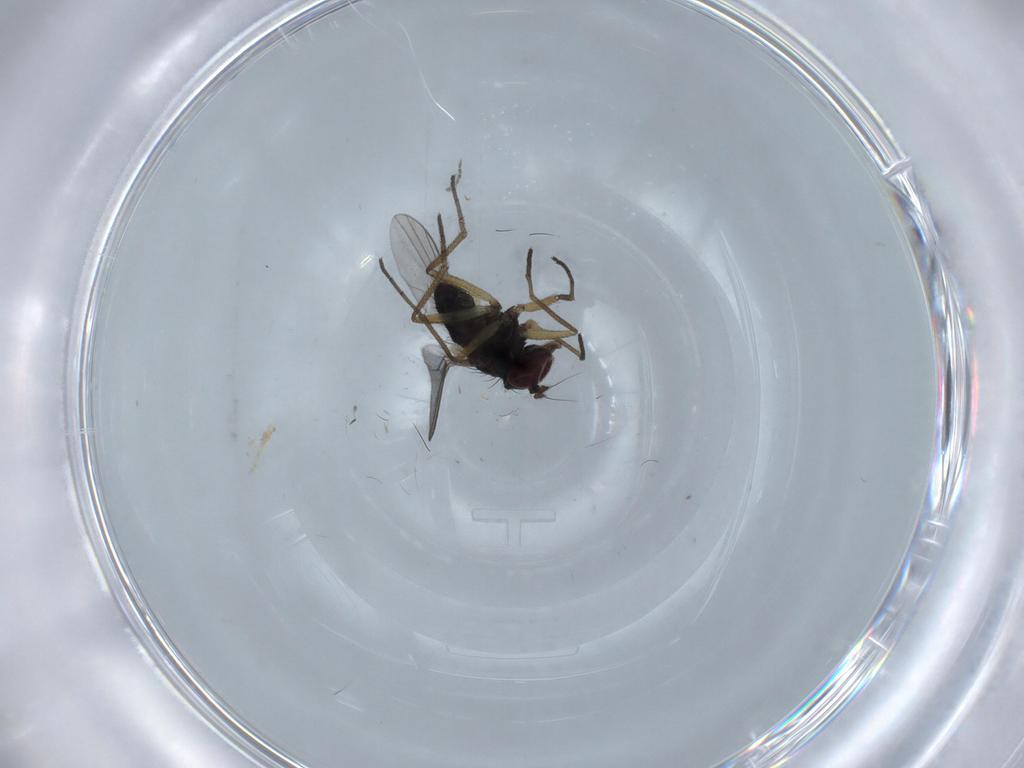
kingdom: Animalia
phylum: Arthropoda
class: Insecta
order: Diptera
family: Dolichopodidae
